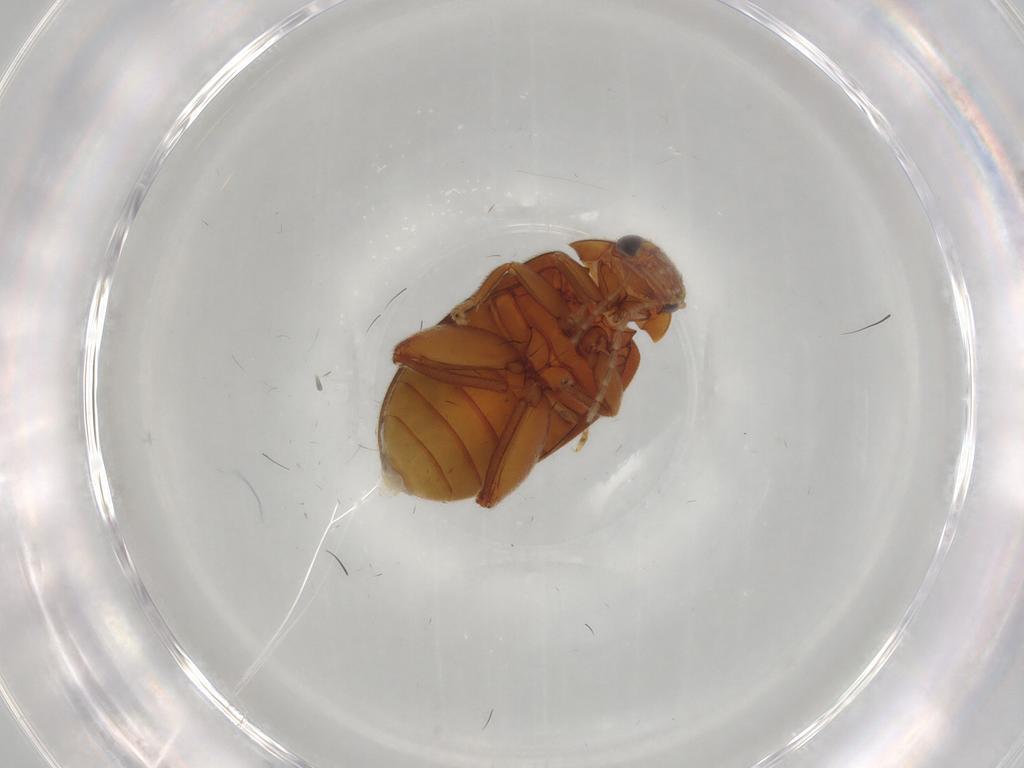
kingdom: Animalia
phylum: Arthropoda
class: Insecta
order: Coleoptera
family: Scirtidae
